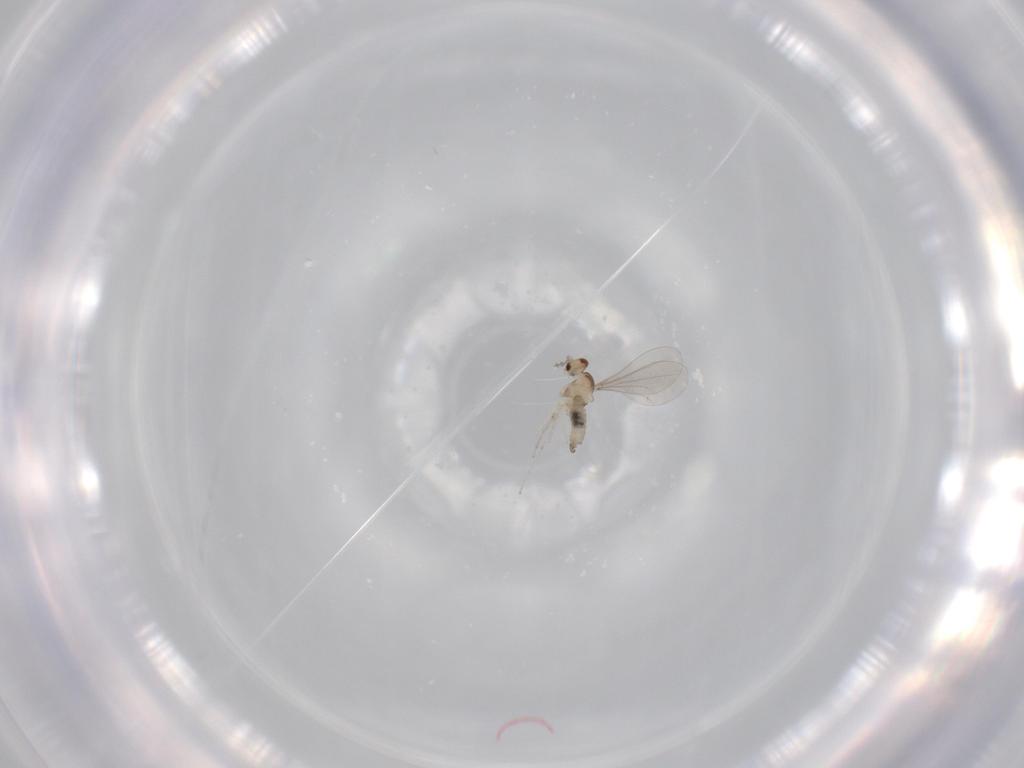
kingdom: Animalia
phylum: Arthropoda
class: Insecta
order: Diptera
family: Cecidomyiidae
